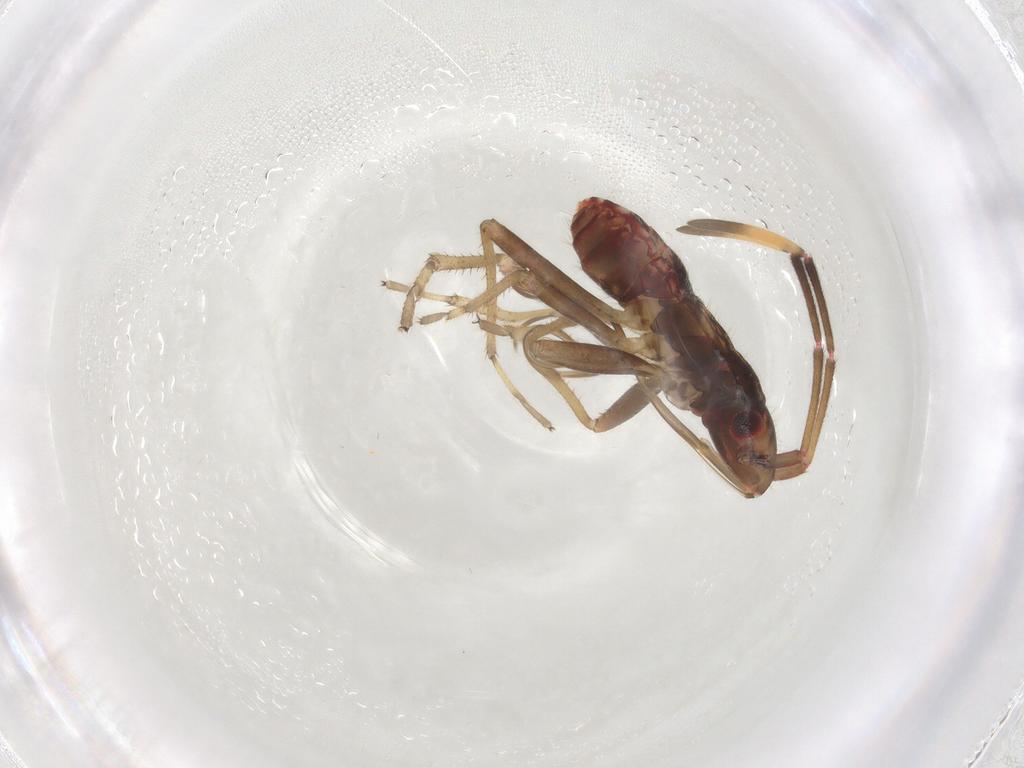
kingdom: Animalia
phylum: Arthropoda
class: Insecta
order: Hemiptera
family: Rhyparochromidae
